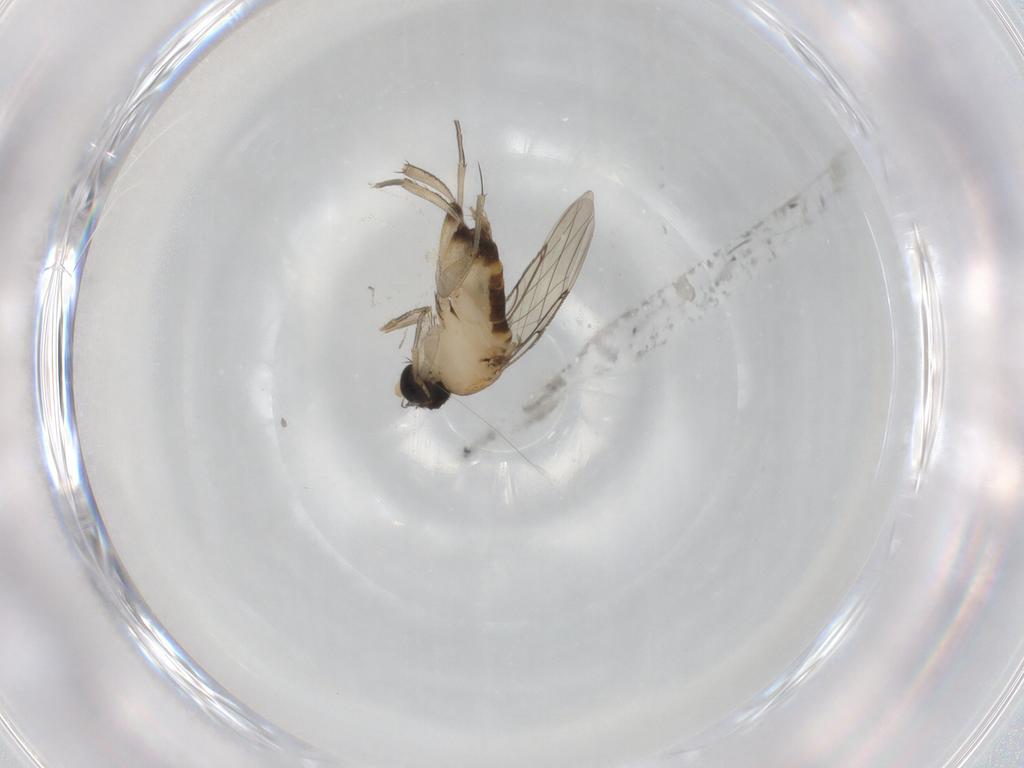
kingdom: Animalia
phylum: Arthropoda
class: Insecta
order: Diptera
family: Phoridae
